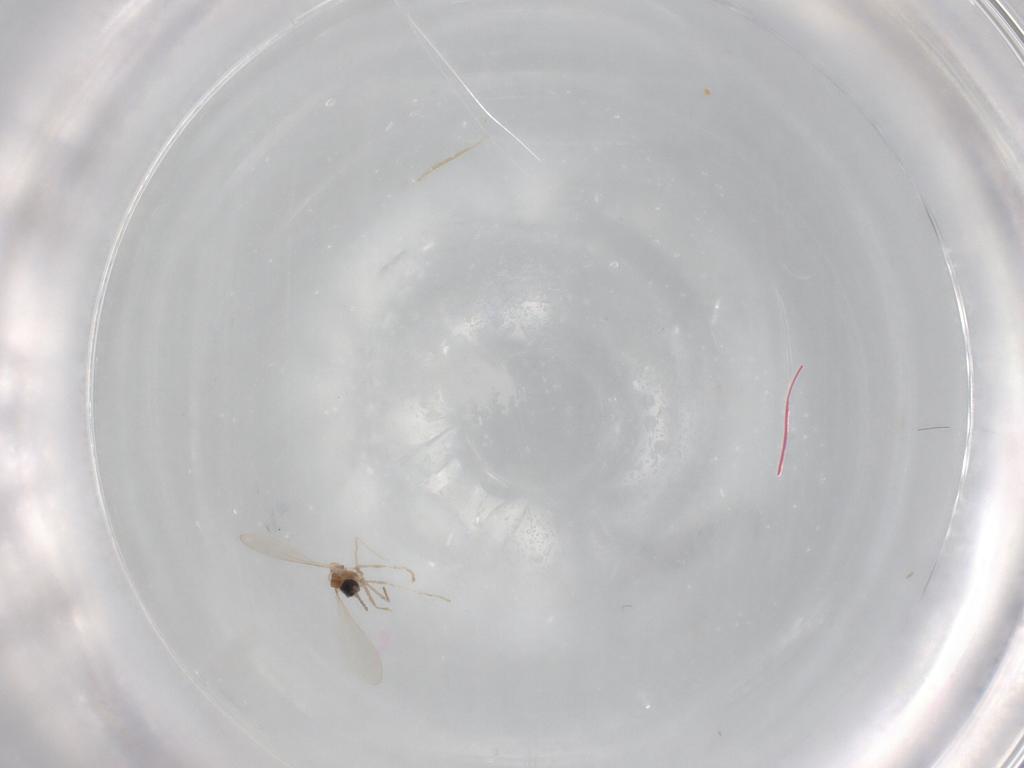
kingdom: Animalia
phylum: Arthropoda
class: Insecta
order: Diptera
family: Cecidomyiidae
